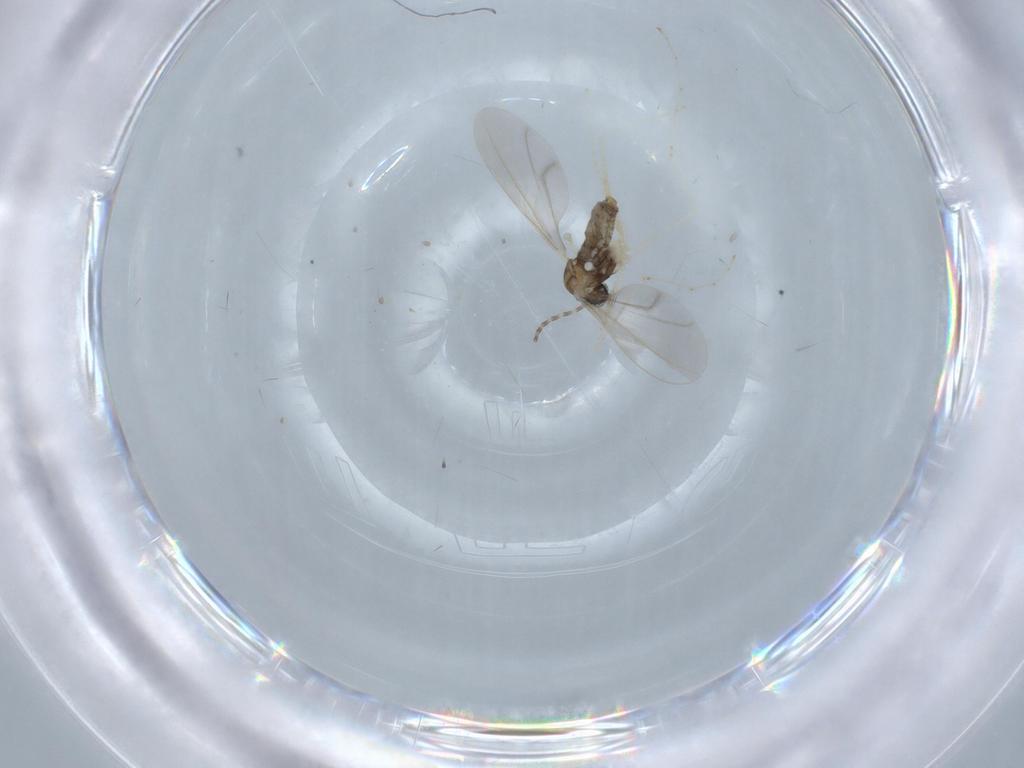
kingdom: Animalia
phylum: Arthropoda
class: Insecta
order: Diptera
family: Cecidomyiidae
